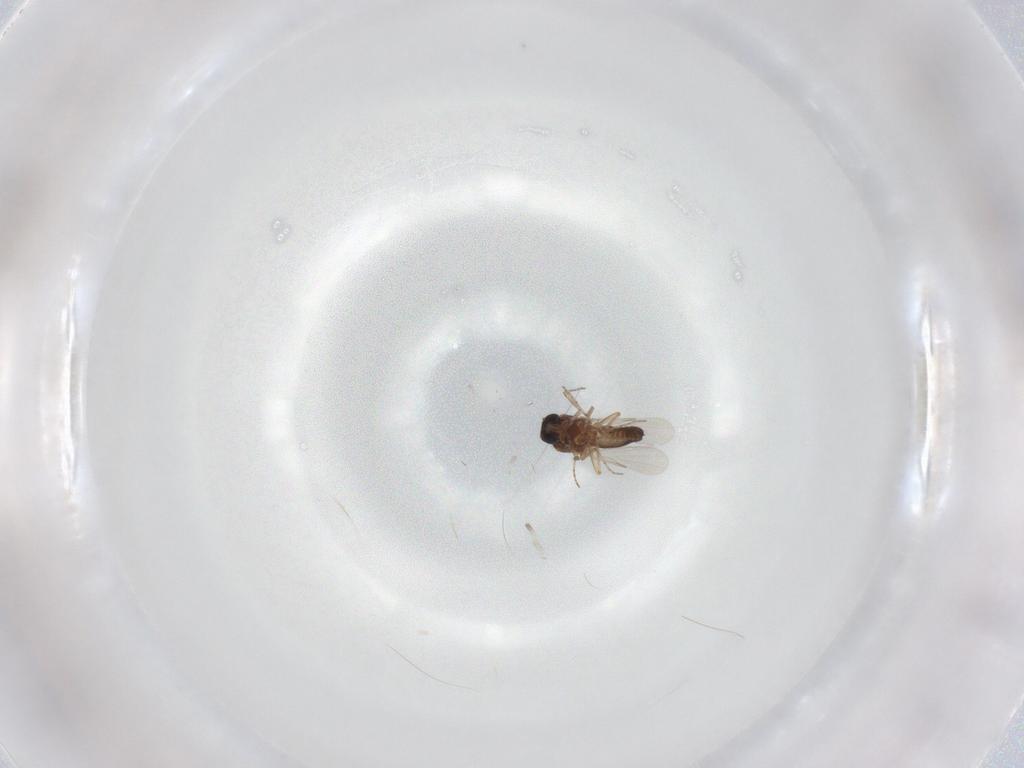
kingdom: Animalia
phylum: Arthropoda
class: Insecta
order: Diptera
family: Ceratopogonidae
